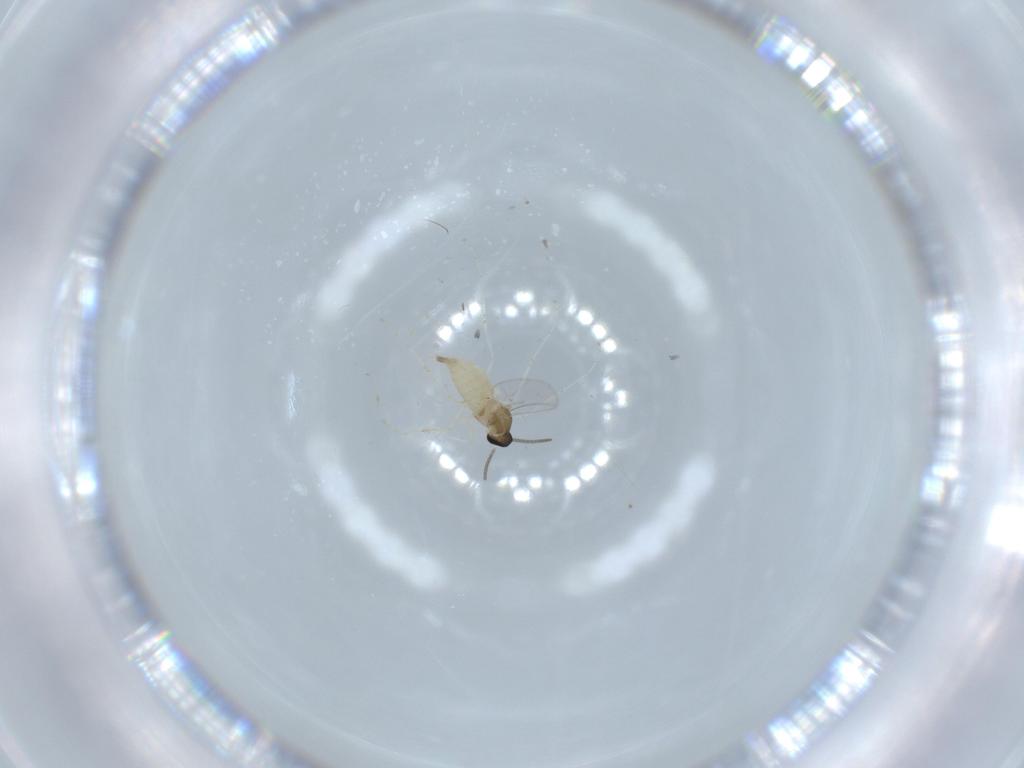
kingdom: Animalia
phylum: Arthropoda
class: Insecta
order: Diptera
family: Cecidomyiidae
